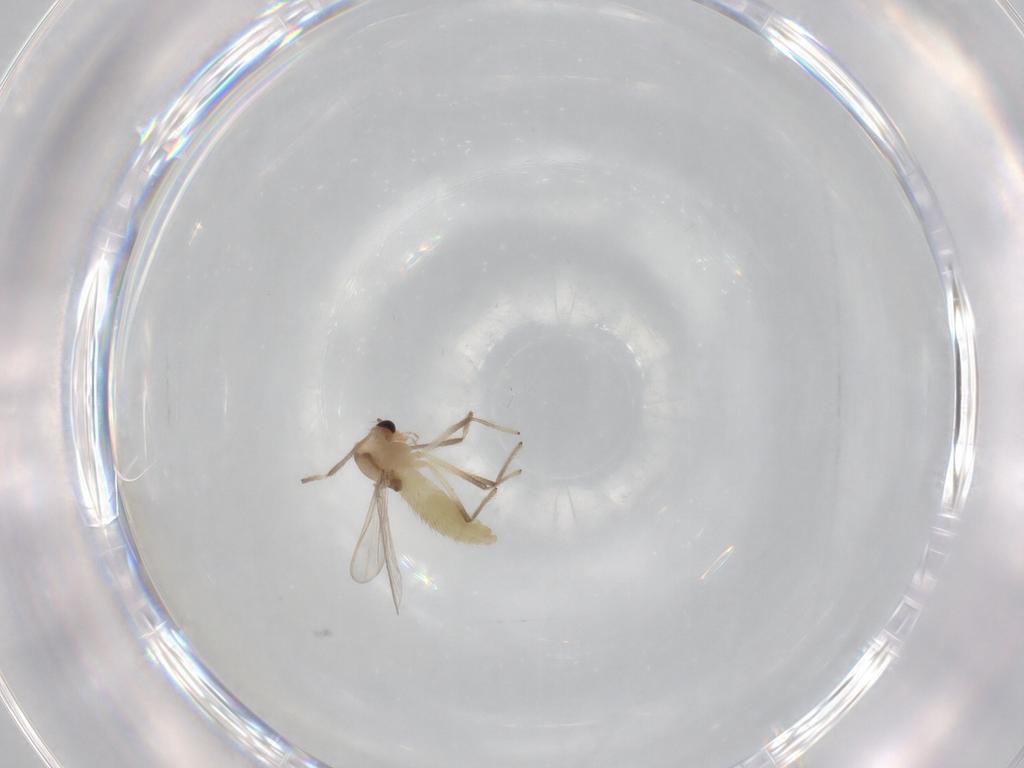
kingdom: Animalia
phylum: Arthropoda
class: Insecta
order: Diptera
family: Chironomidae
